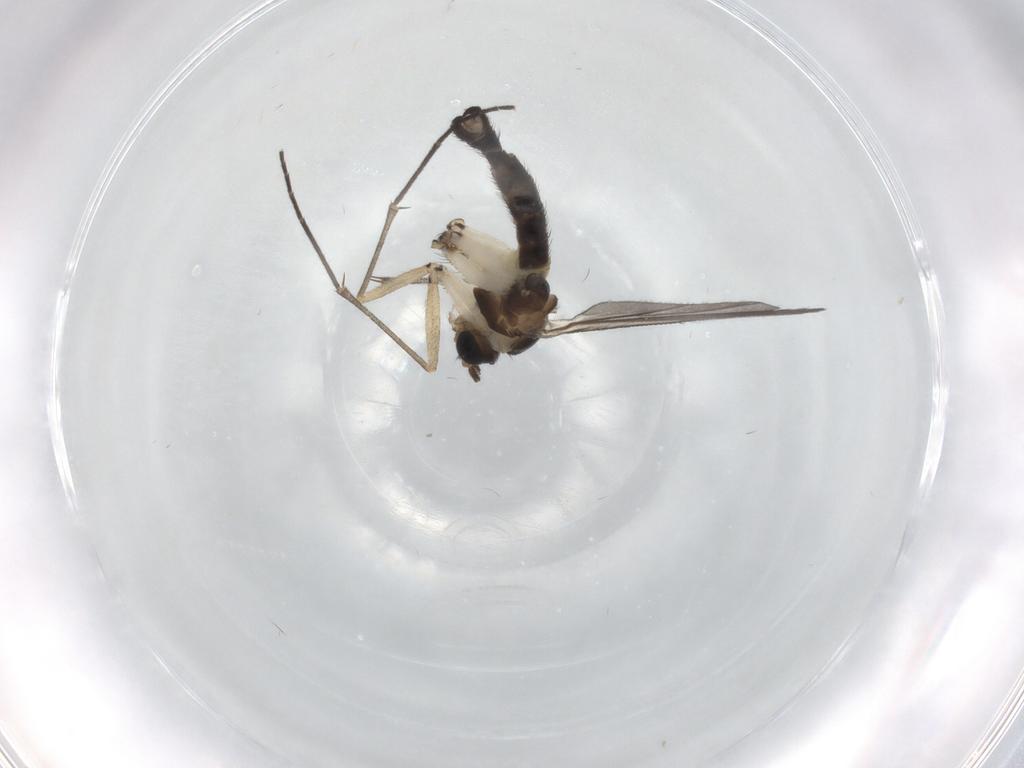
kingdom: Animalia
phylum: Arthropoda
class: Insecta
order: Diptera
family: Sciaridae
